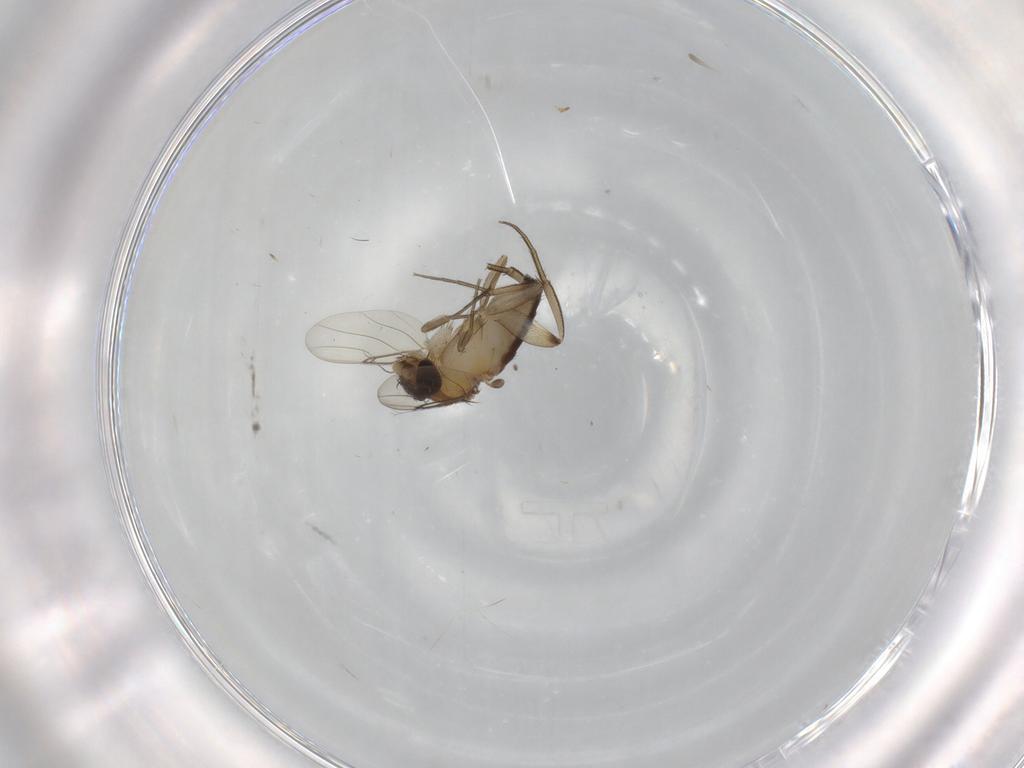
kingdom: Animalia
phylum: Arthropoda
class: Insecta
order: Diptera
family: Phoridae
